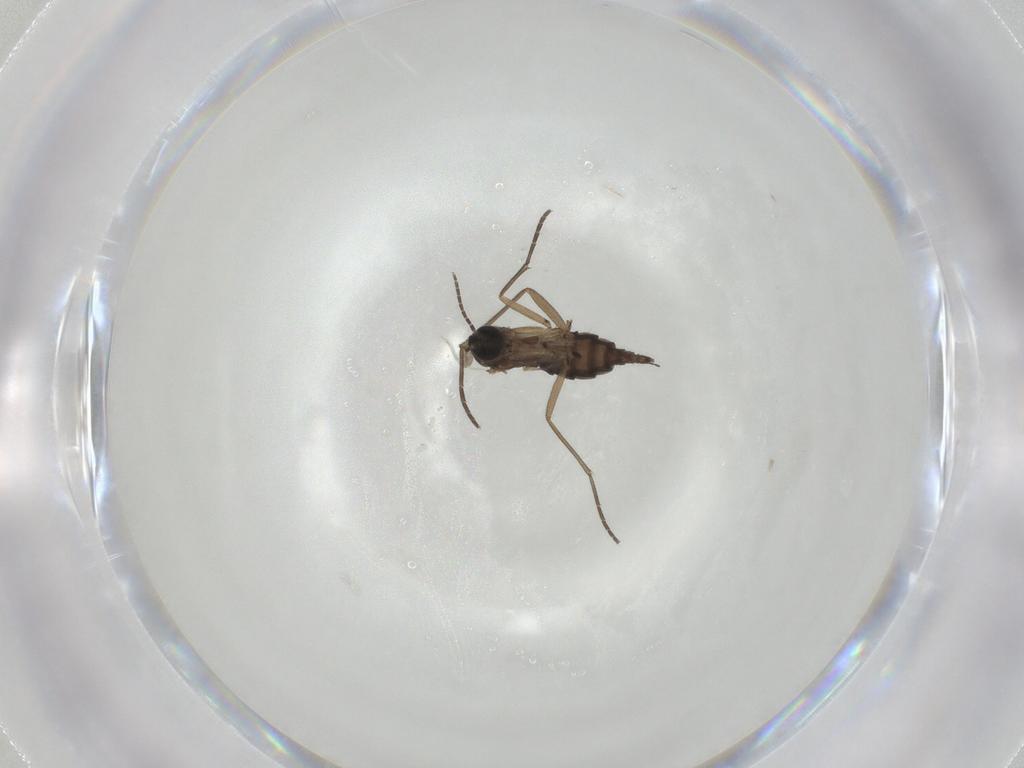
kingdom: Animalia
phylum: Arthropoda
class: Insecta
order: Diptera
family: Sciaridae
